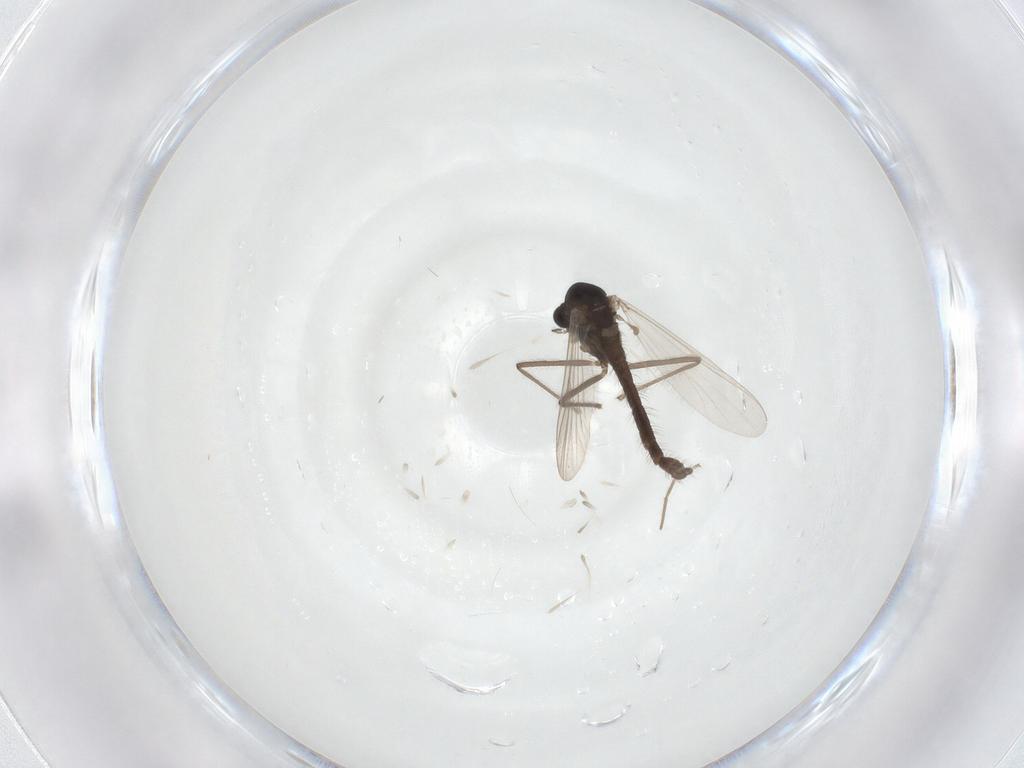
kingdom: Animalia
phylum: Arthropoda
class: Insecta
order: Diptera
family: Chironomidae
